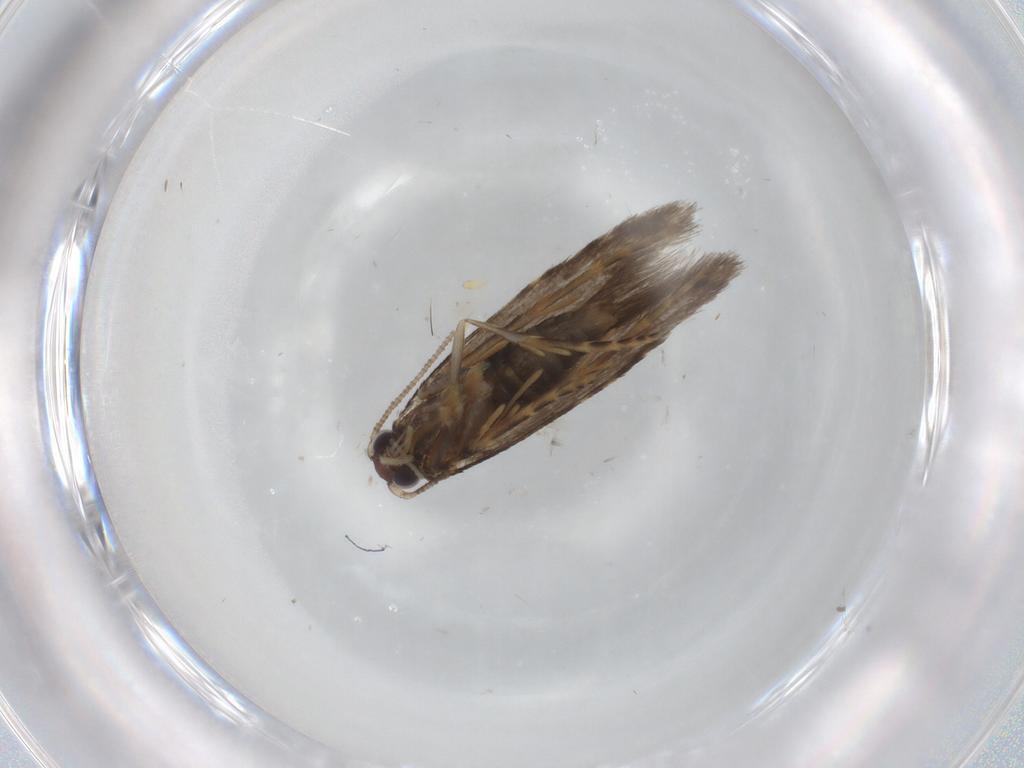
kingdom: Animalia
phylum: Arthropoda
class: Insecta
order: Lepidoptera
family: Tineidae
